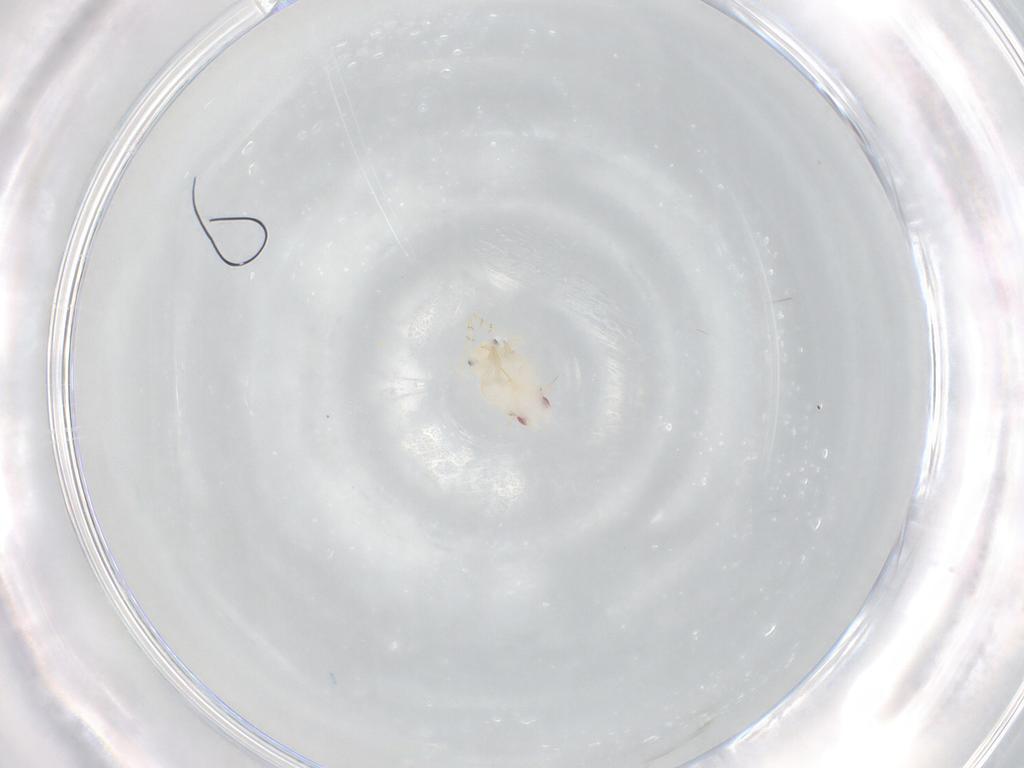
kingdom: Animalia
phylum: Arthropoda
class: Insecta
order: Hemiptera
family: Flatidae
